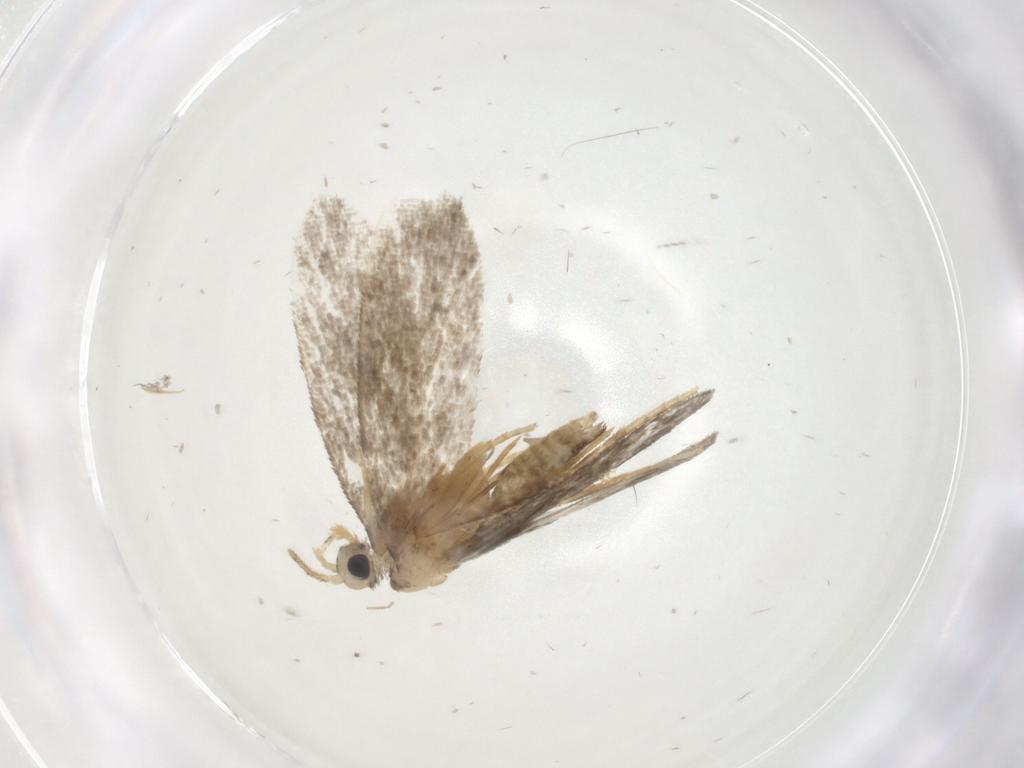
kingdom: Animalia
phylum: Arthropoda
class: Insecta
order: Lepidoptera
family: Psychidae
